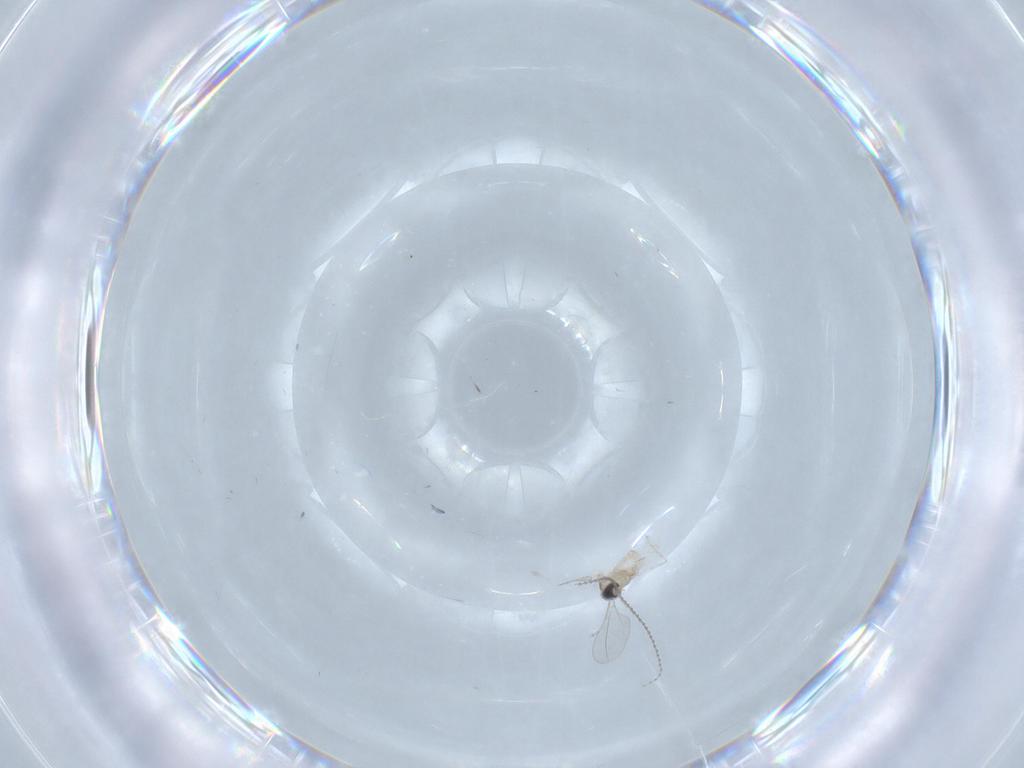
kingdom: Animalia
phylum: Arthropoda
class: Insecta
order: Diptera
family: Cecidomyiidae
